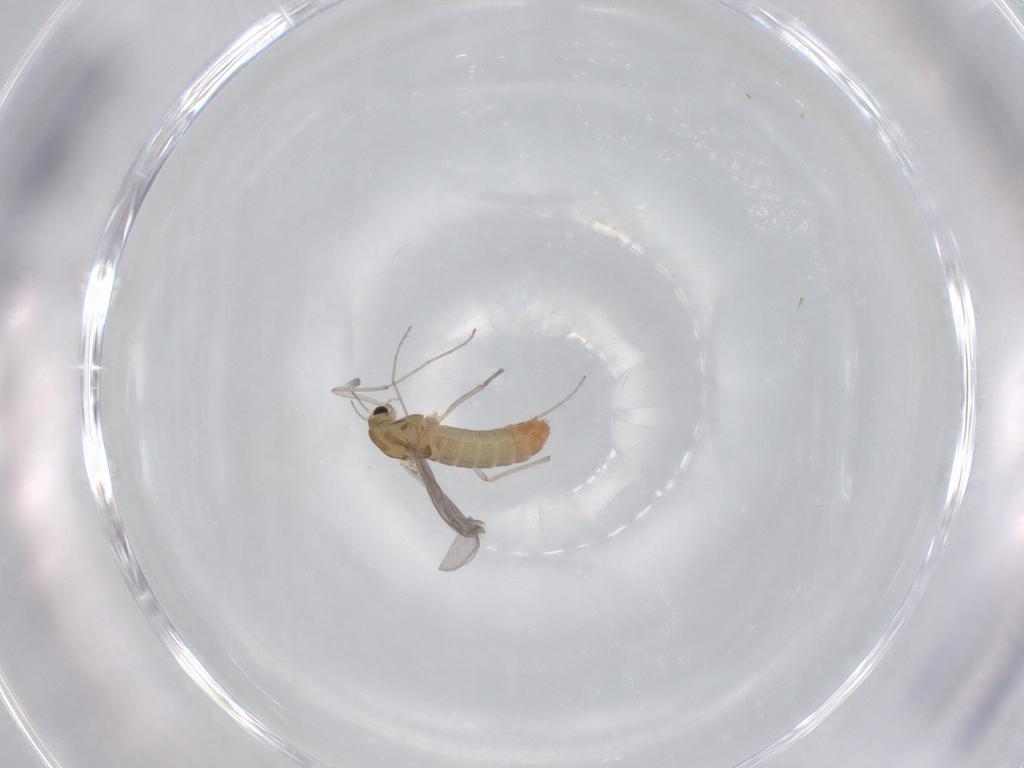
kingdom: Animalia
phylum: Arthropoda
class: Insecta
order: Diptera
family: Chironomidae
